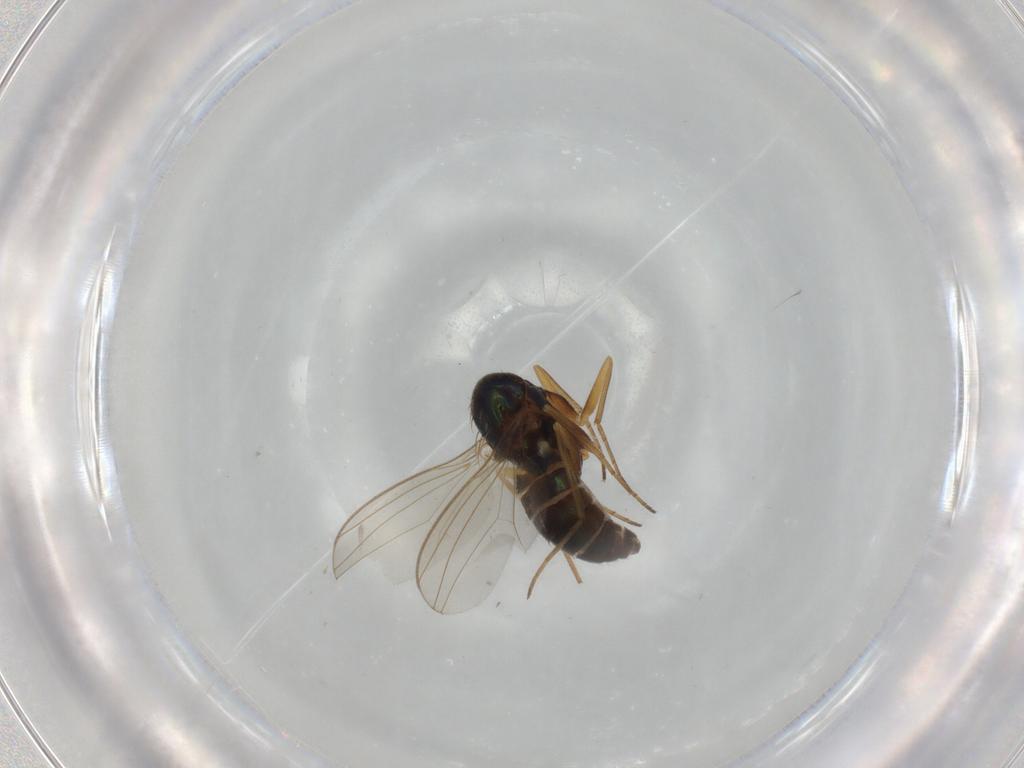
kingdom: Animalia
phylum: Arthropoda
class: Insecta
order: Diptera
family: Dolichopodidae
